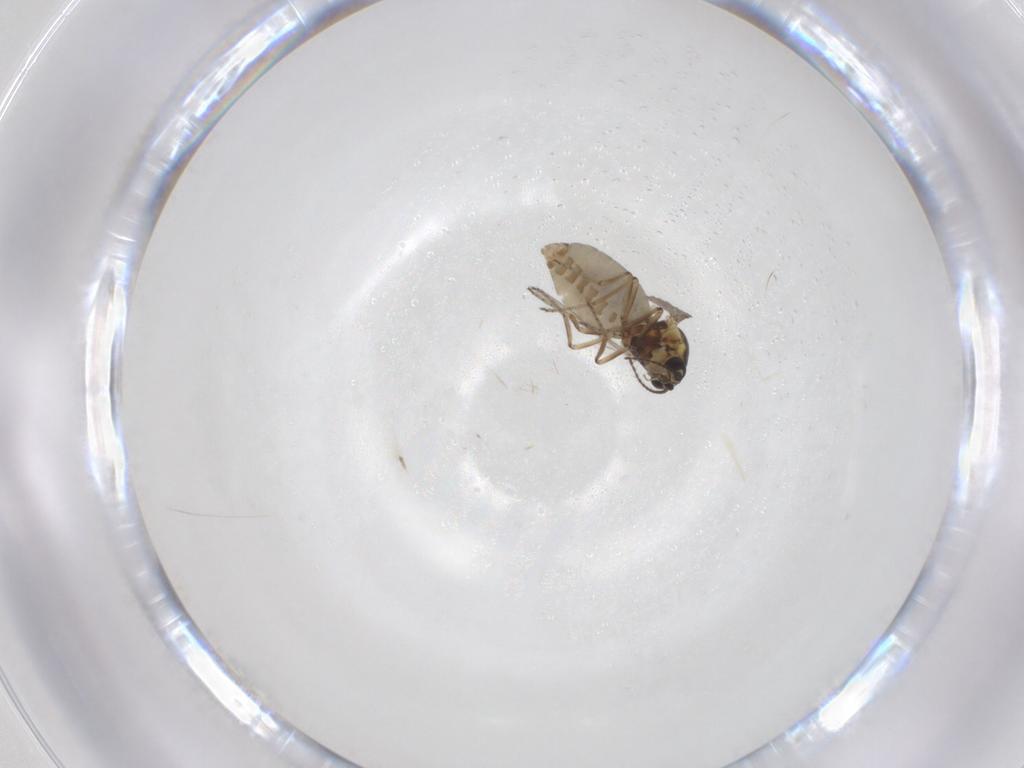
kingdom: Animalia
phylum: Arthropoda
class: Insecta
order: Diptera
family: Ceratopogonidae
